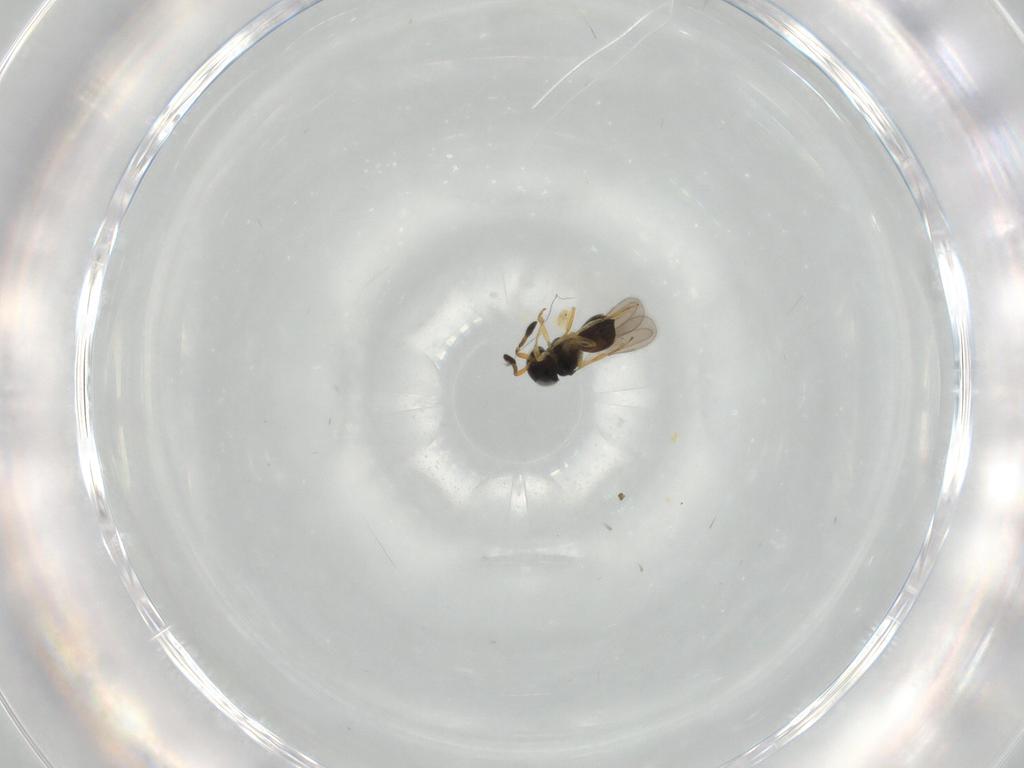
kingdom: Animalia
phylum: Arthropoda
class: Insecta
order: Hymenoptera
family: Scelionidae
